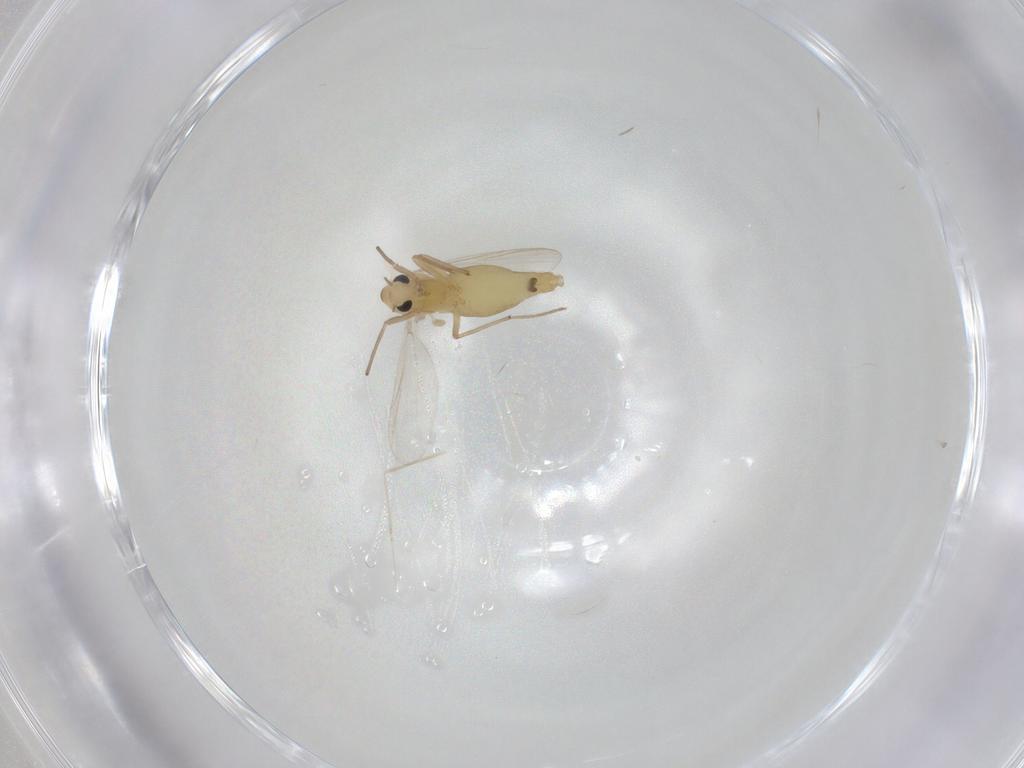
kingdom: Animalia
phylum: Arthropoda
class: Insecta
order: Diptera
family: Chironomidae
